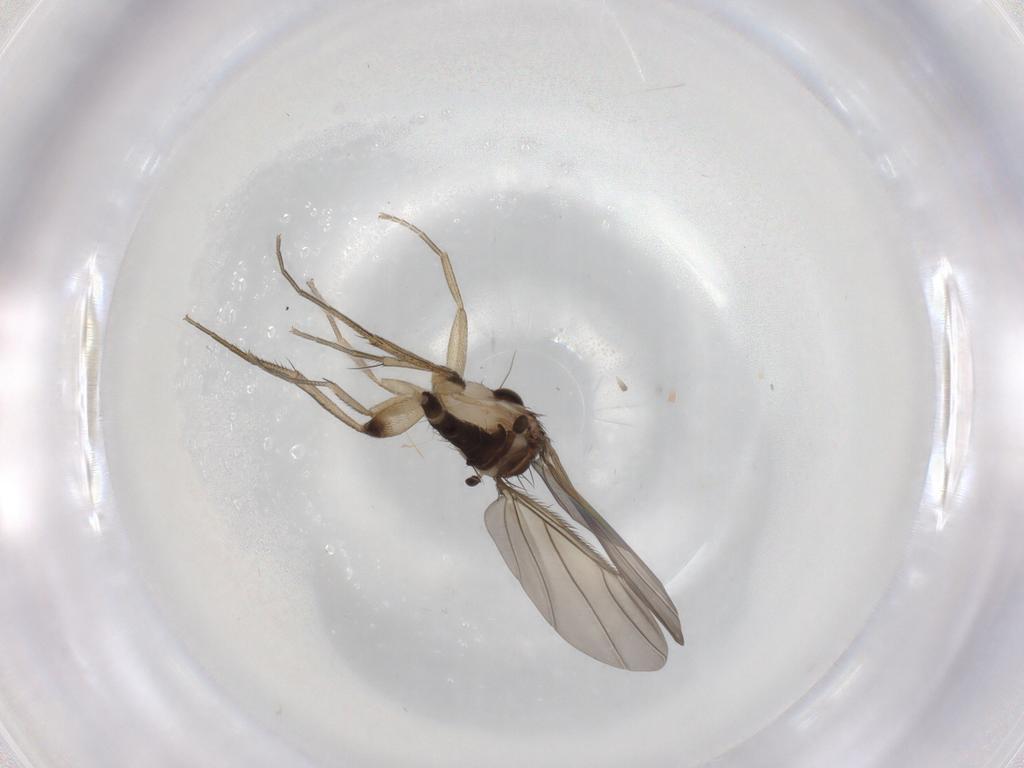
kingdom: Animalia
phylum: Arthropoda
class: Insecta
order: Diptera
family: Phoridae
